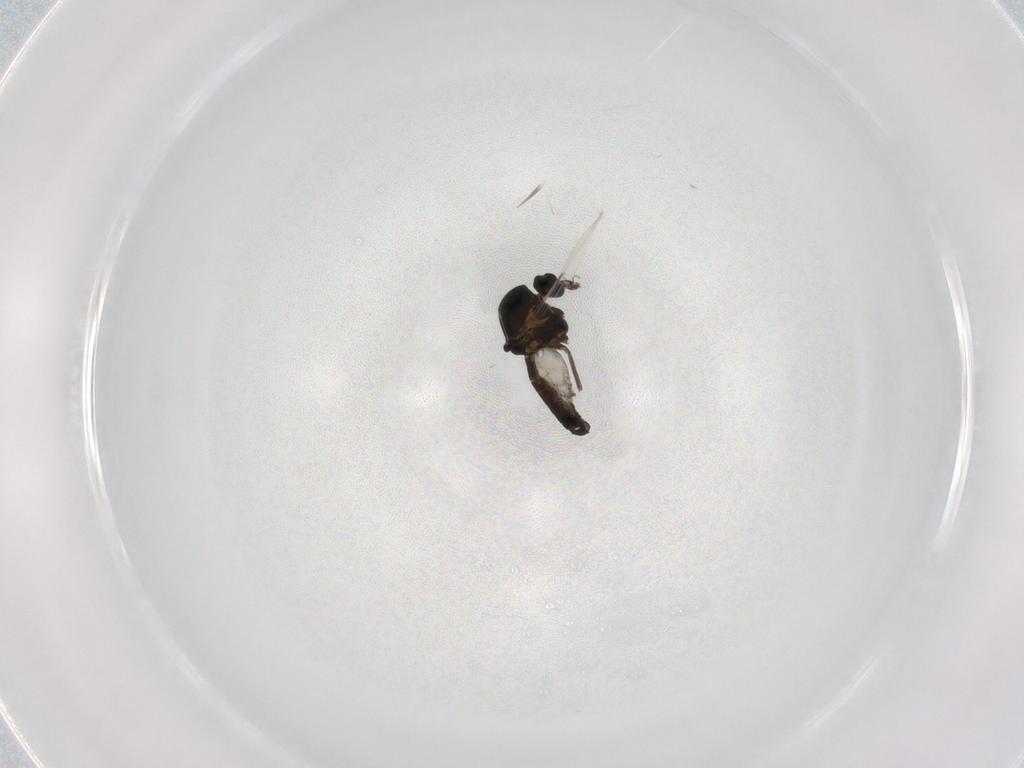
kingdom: Animalia
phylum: Arthropoda
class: Insecta
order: Diptera
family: Ceratopogonidae
